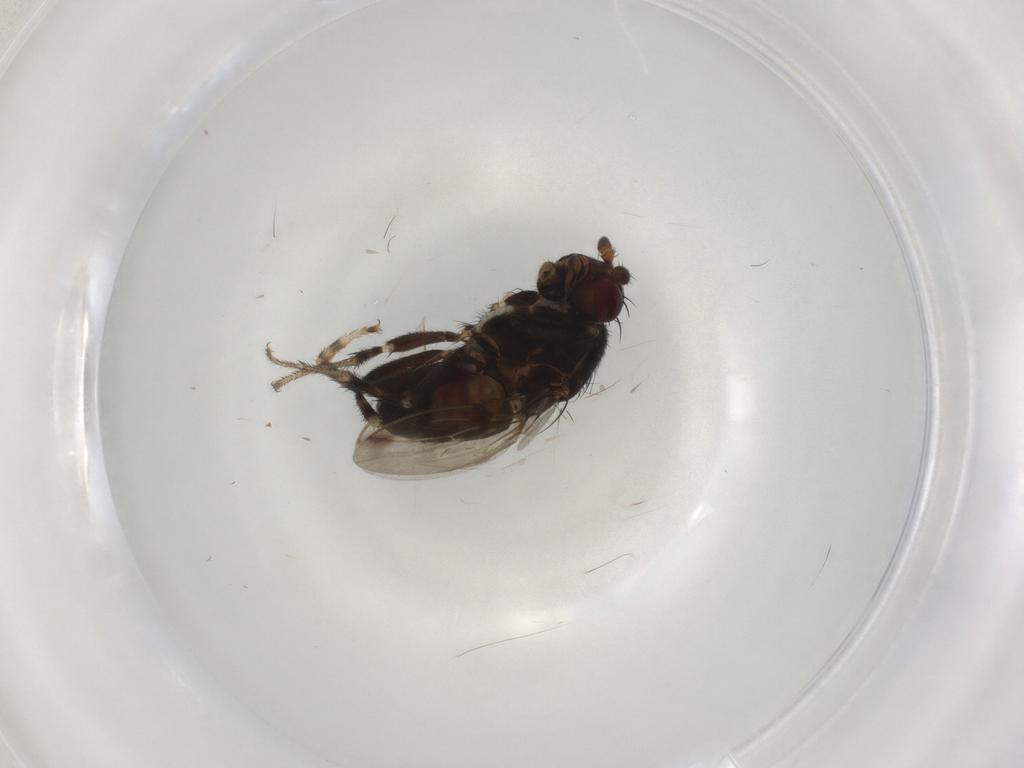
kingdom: Animalia
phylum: Arthropoda
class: Insecta
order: Diptera
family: Sphaeroceridae
